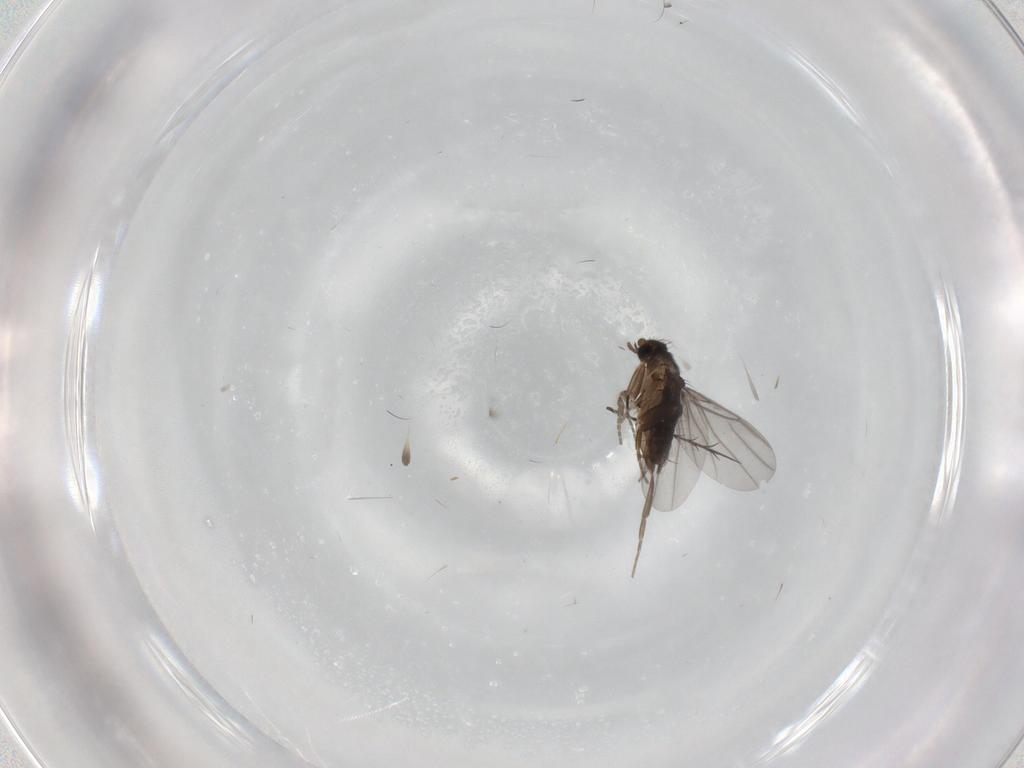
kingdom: Animalia
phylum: Arthropoda
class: Insecta
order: Diptera
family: Phoridae
